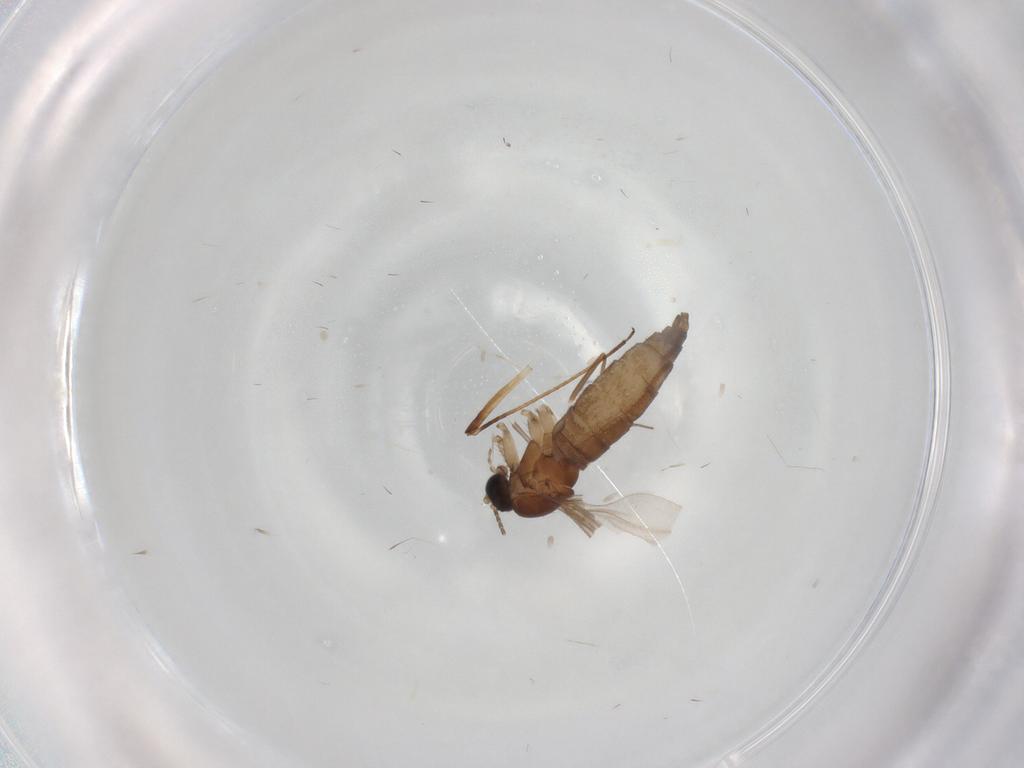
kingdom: Animalia
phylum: Arthropoda
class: Insecta
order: Diptera
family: Sciaridae
